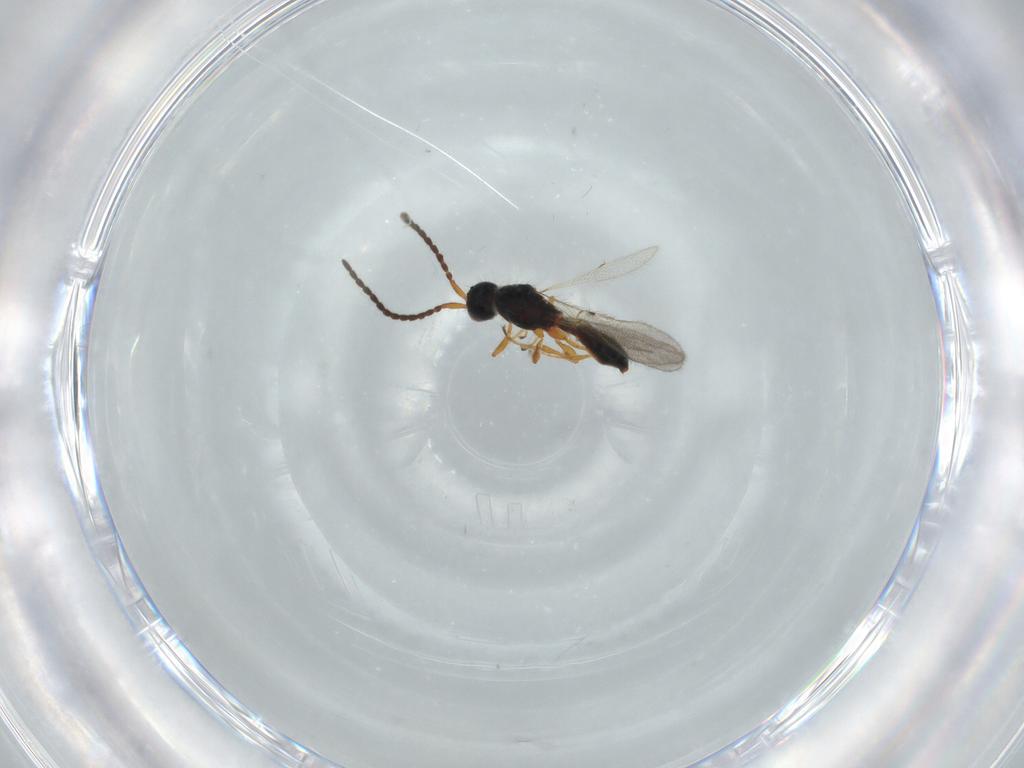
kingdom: Animalia
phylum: Arthropoda
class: Insecta
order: Hymenoptera
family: Diapriidae
